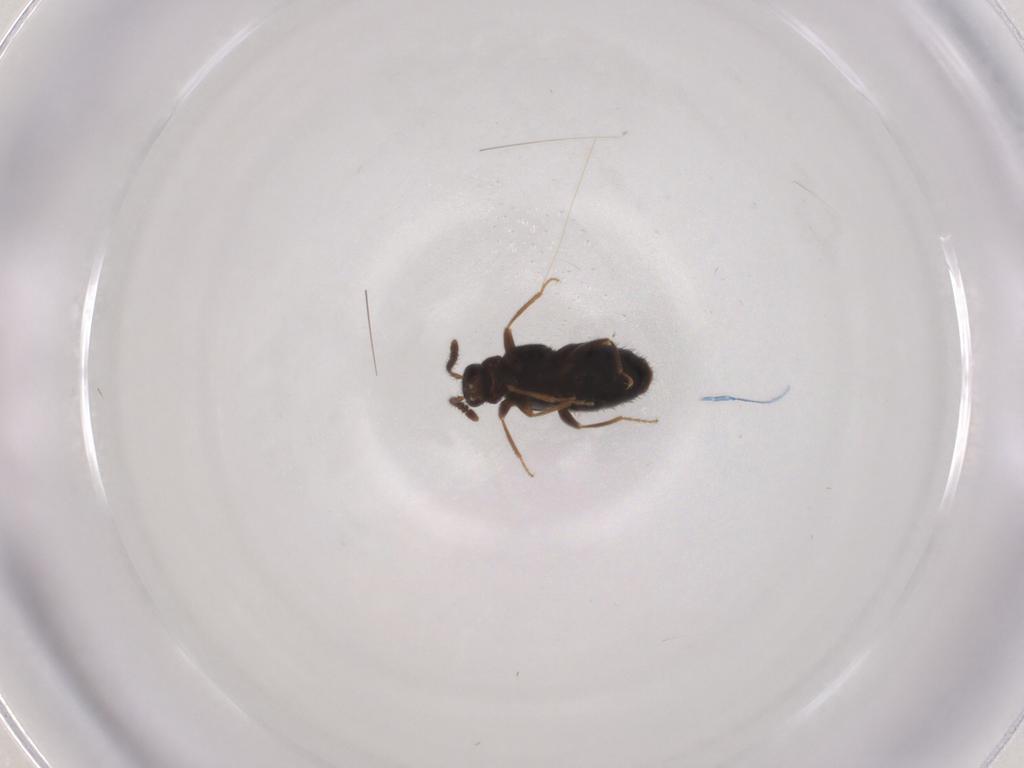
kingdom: Animalia
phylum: Arthropoda
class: Insecta
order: Coleoptera
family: Staphylinidae
